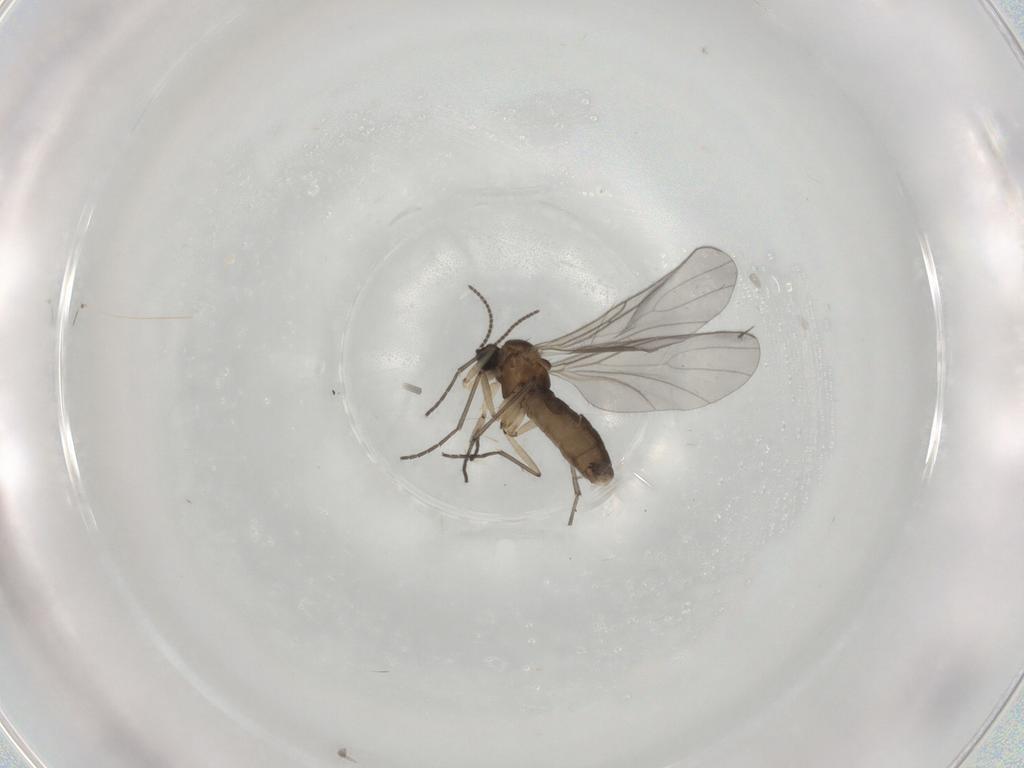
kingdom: Animalia
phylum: Arthropoda
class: Insecta
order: Diptera
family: Sciaridae
